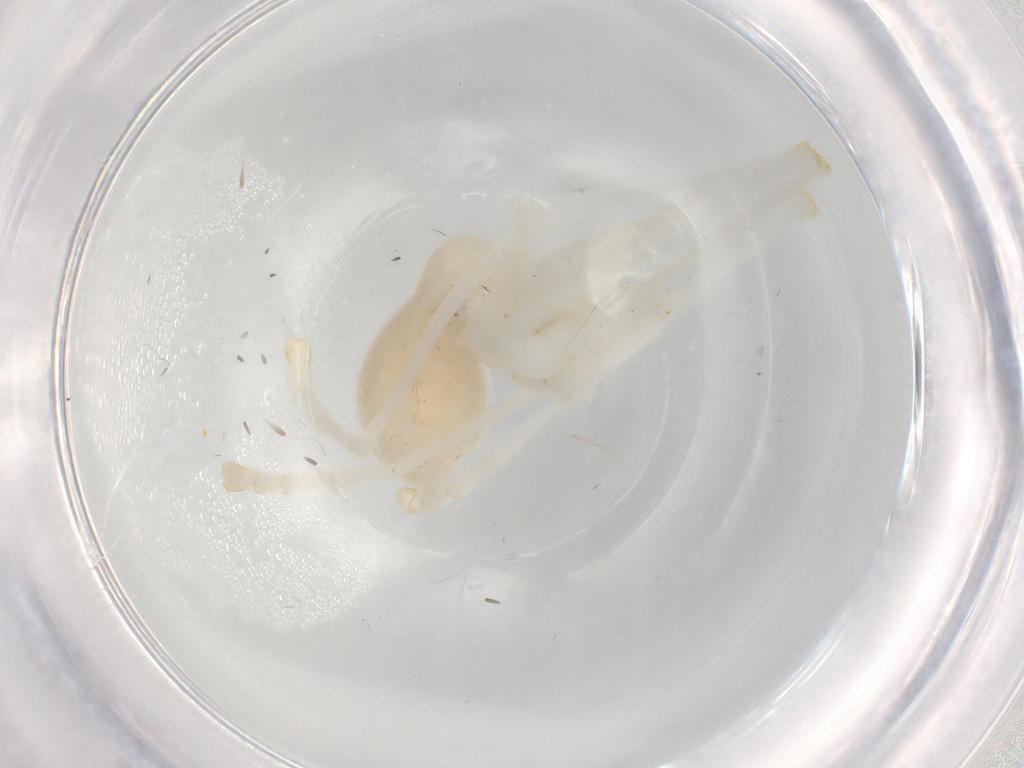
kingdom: Animalia
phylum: Arthropoda
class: Insecta
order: Hymenoptera
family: Formicidae
